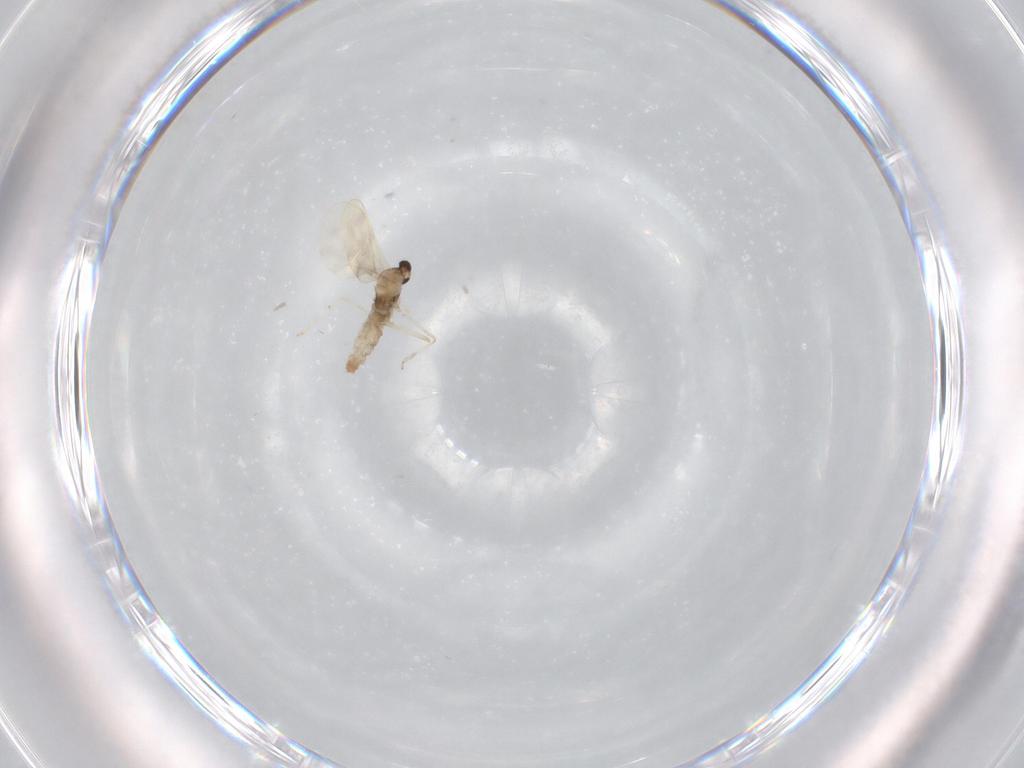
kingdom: Animalia
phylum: Arthropoda
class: Insecta
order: Diptera
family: Cecidomyiidae
